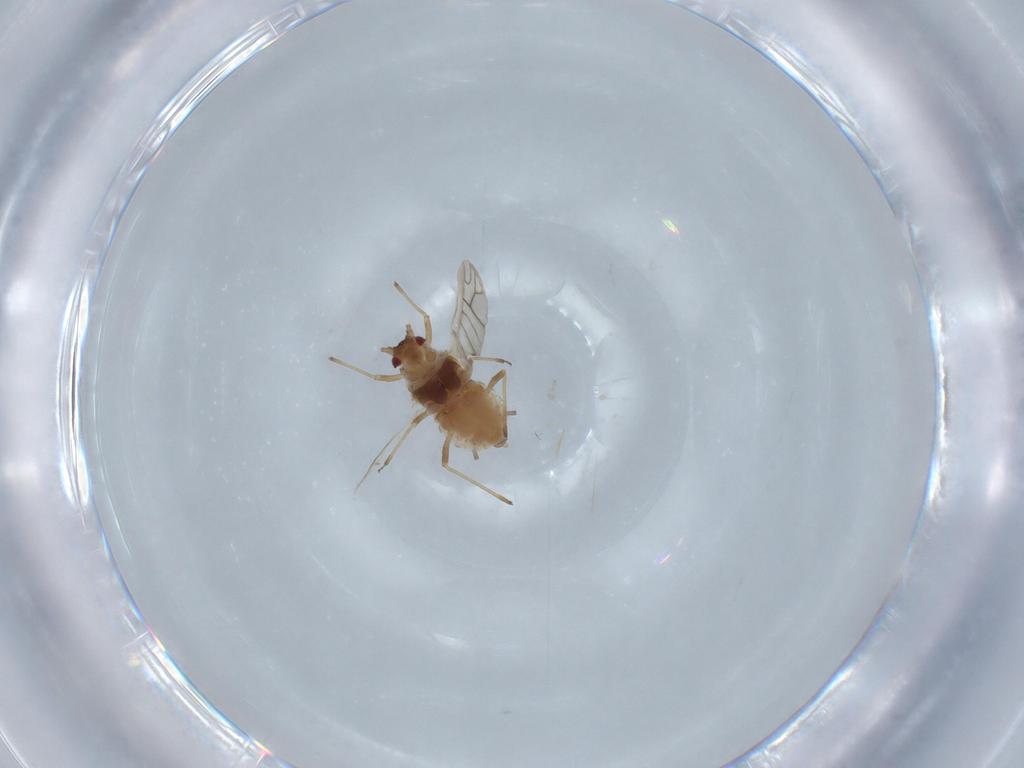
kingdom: Animalia
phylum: Arthropoda
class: Insecta
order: Hemiptera
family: Aphididae
